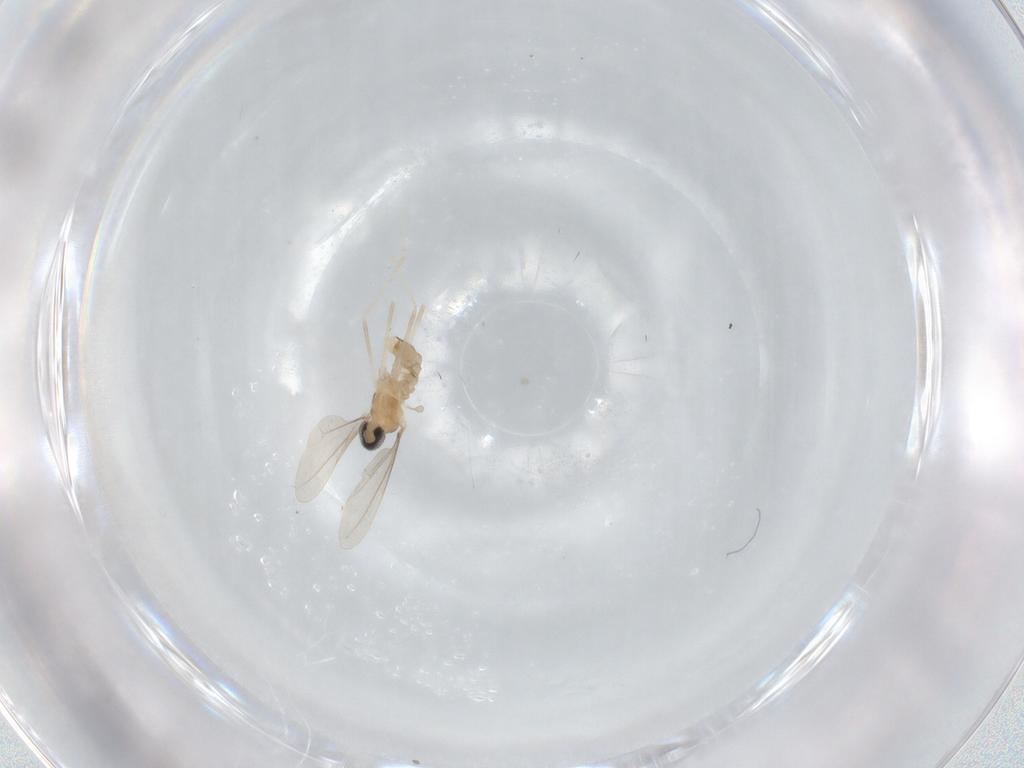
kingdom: Animalia
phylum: Arthropoda
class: Insecta
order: Diptera
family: Cecidomyiidae
